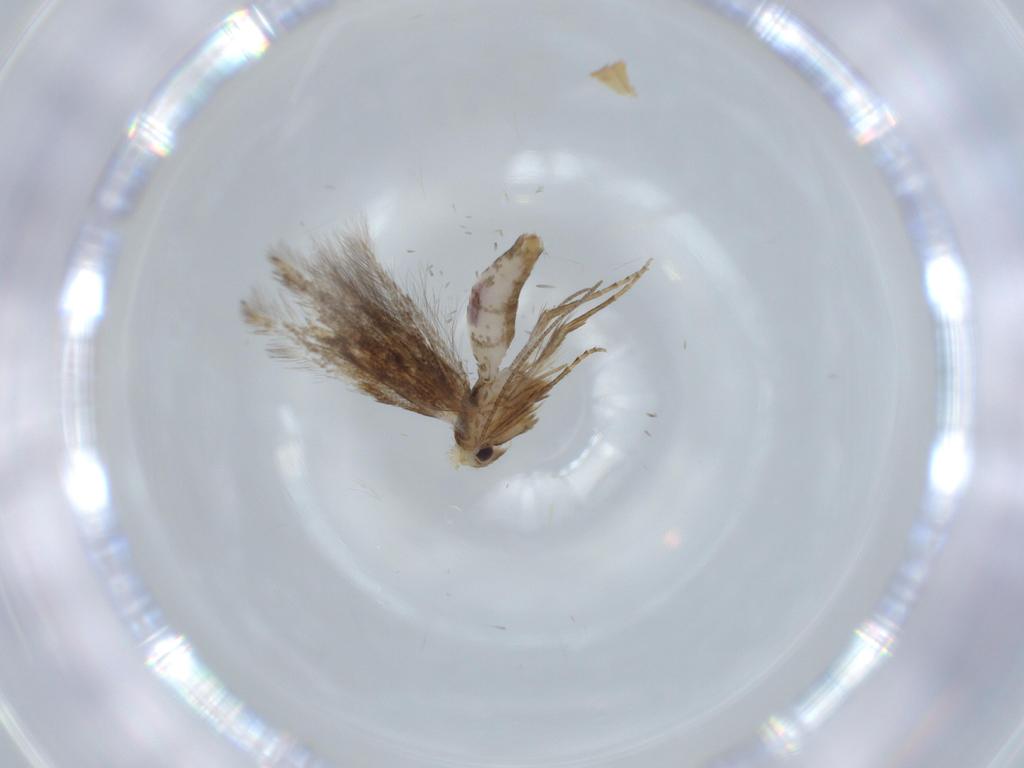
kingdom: Animalia
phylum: Arthropoda
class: Insecta
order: Lepidoptera
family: Bucculatricidae
